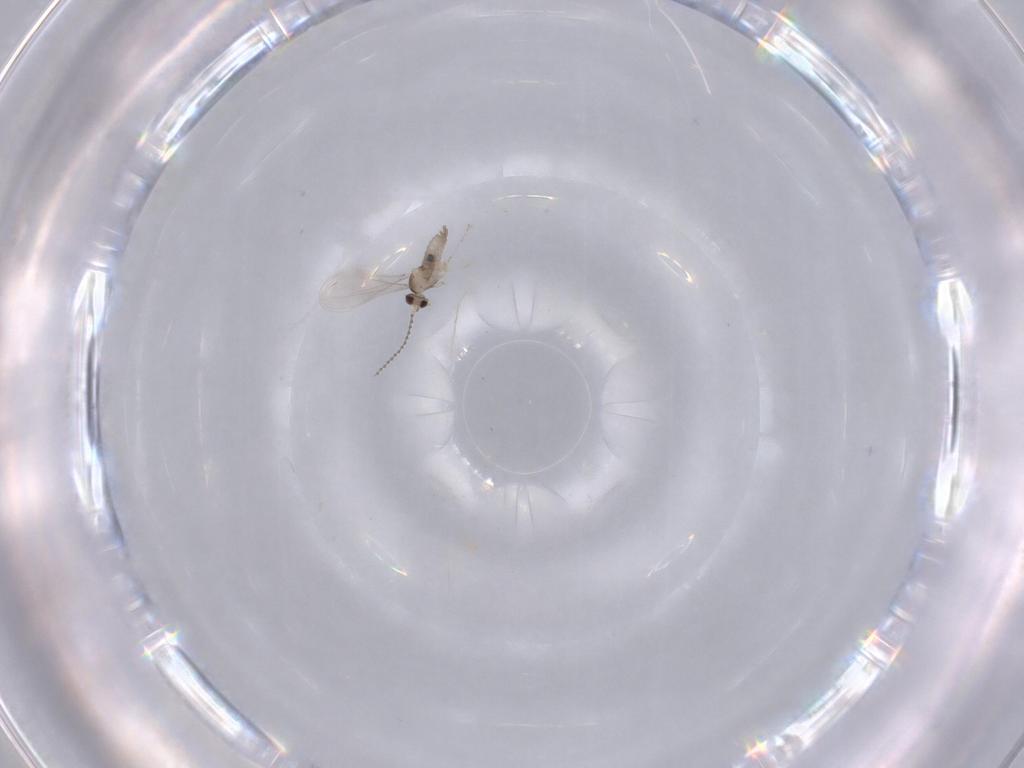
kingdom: Animalia
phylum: Arthropoda
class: Insecta
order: Diptera
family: Cecidomyiidae
